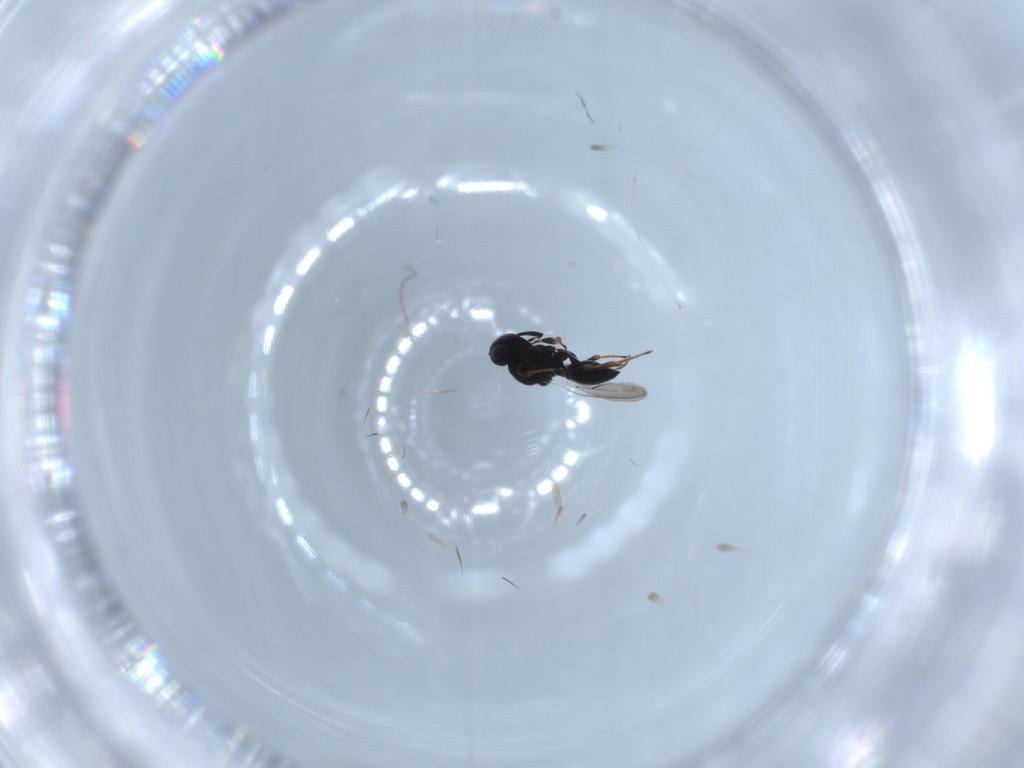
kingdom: Animalia
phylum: Arthropoda
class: Insecta
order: Hymenoptera
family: Platygastridae
